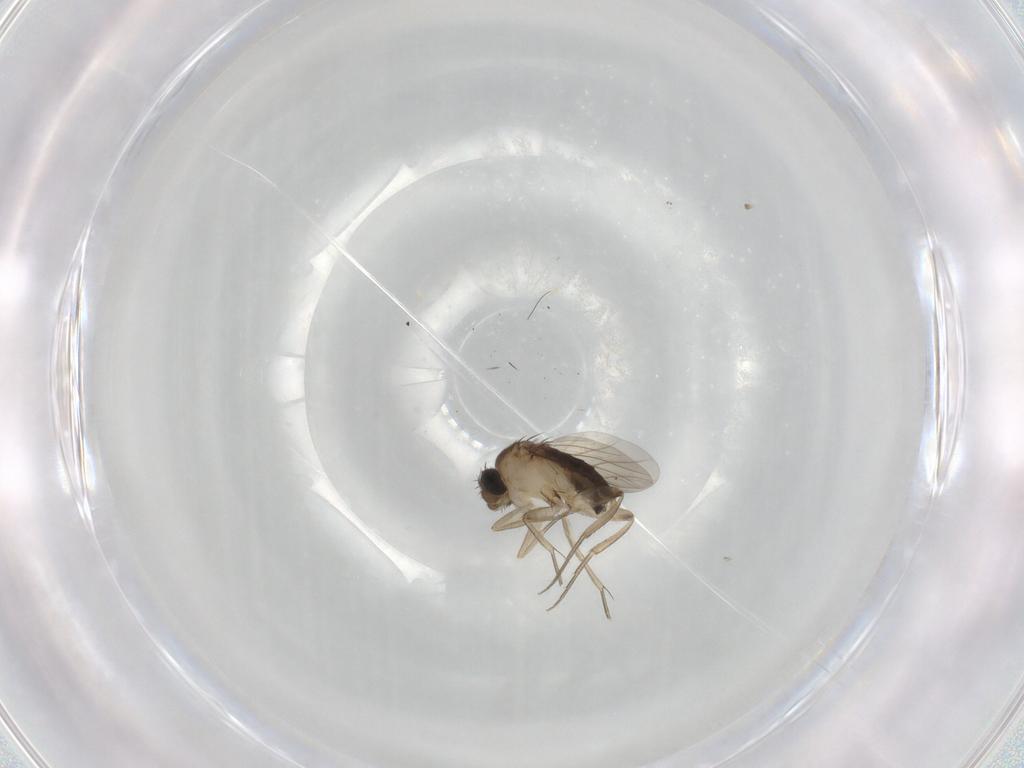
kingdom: Animalia
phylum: Arthropoda
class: Insecta
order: Diptera
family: Phoridae
